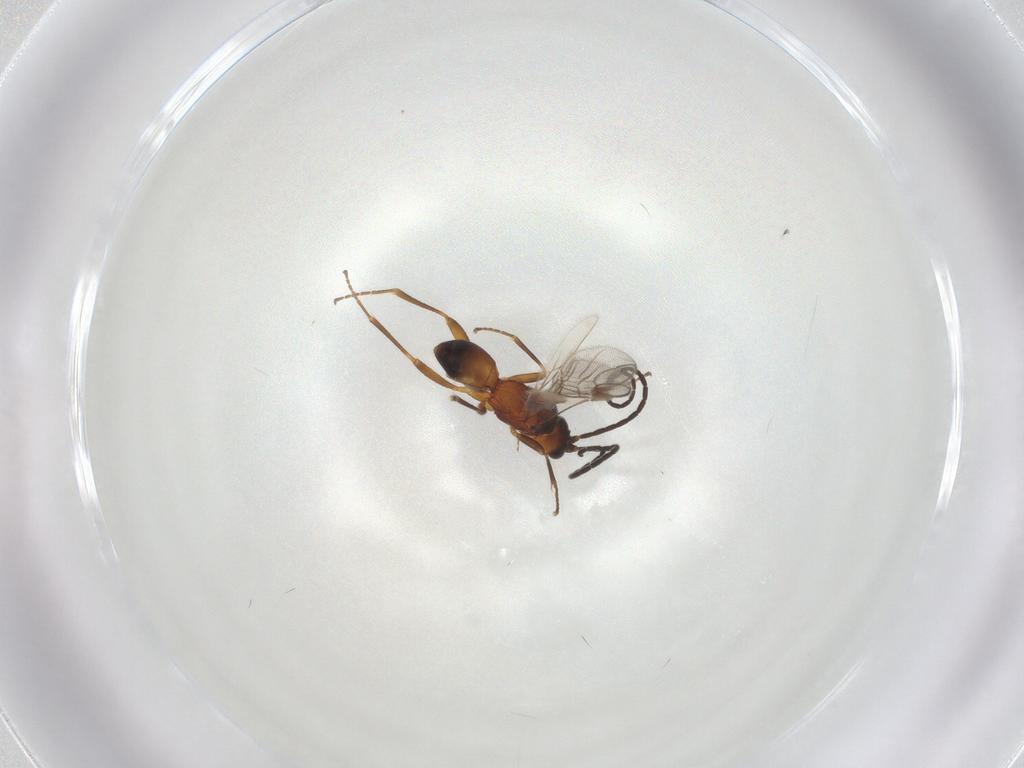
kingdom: Animalia
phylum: Arthropoda
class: Insecta
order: Hymenoptera
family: Braconidae
